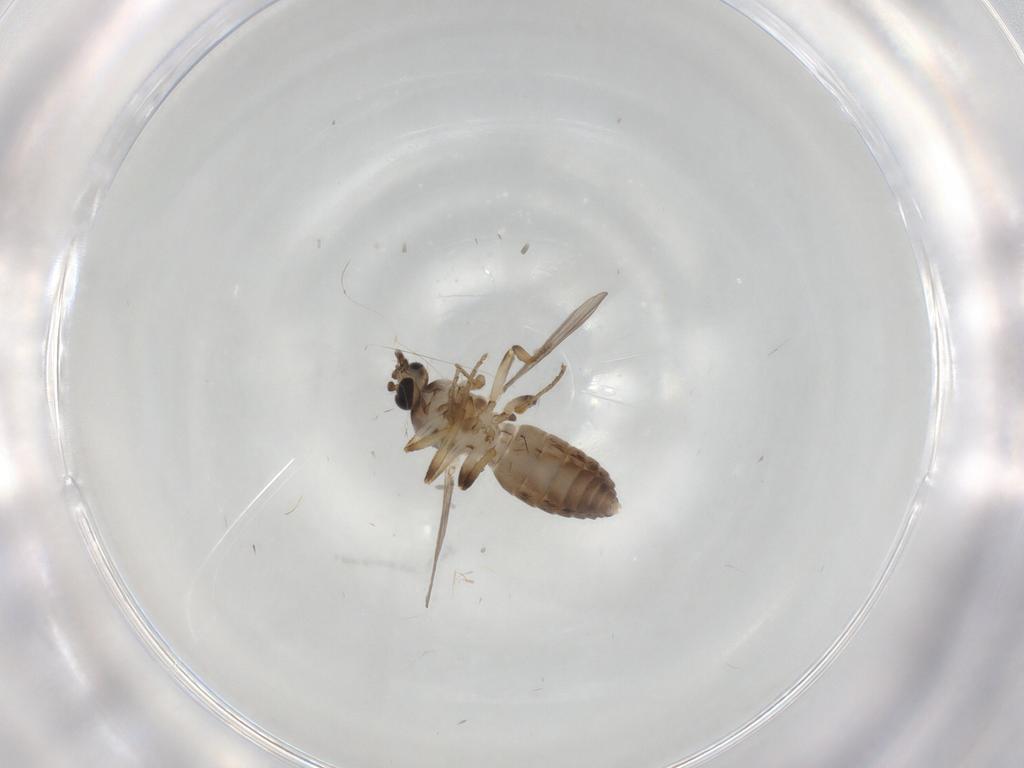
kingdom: Animalia
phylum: Arthropoda
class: Insecta
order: Diptera
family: Ceratopogonidae
